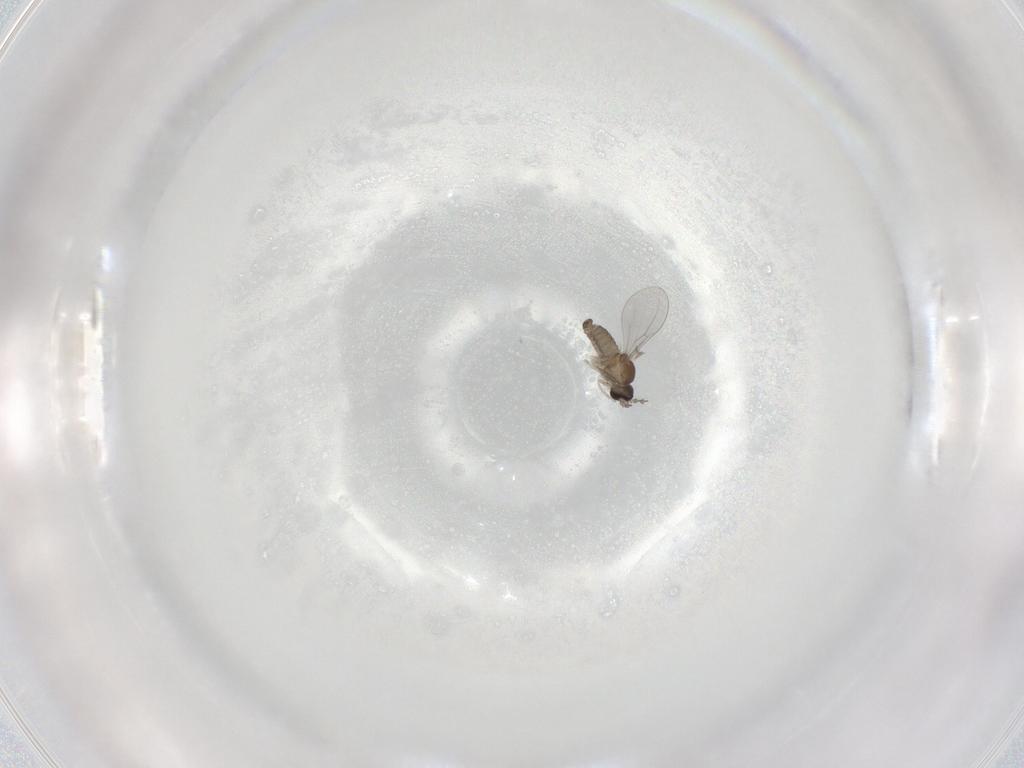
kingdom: Animalia
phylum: Arthropoda
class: Insecta
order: Diptera
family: Cecidomyiidae
